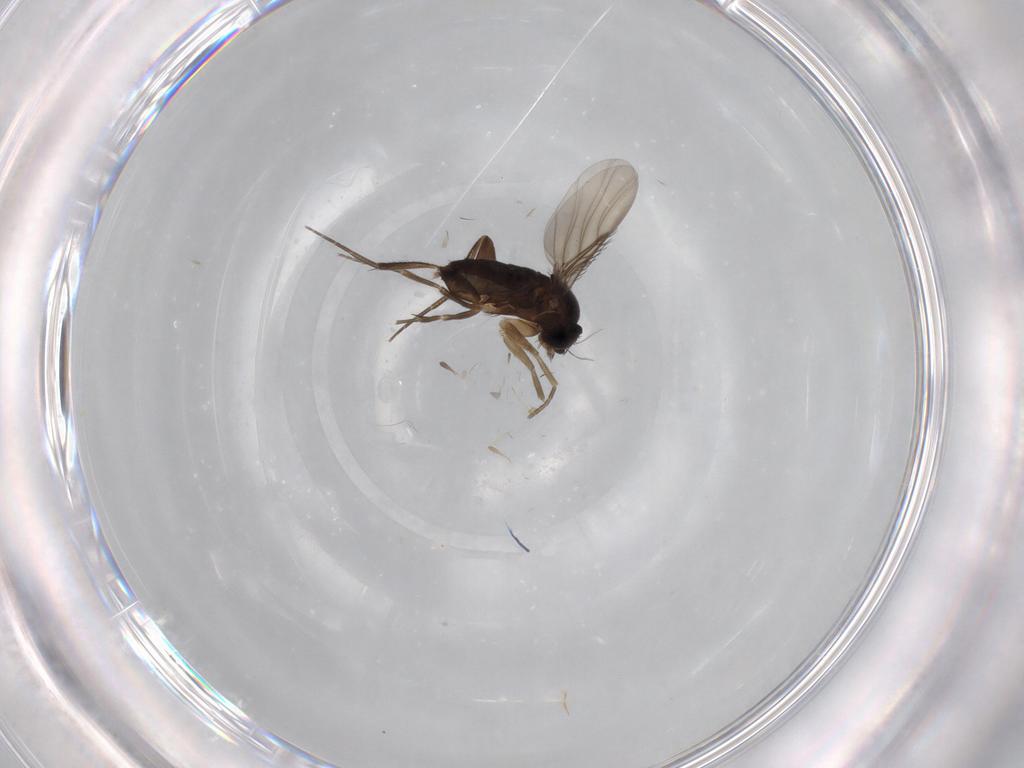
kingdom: Animalia
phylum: Arthropoda
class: Insecta
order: Diptera
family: Phoridae
